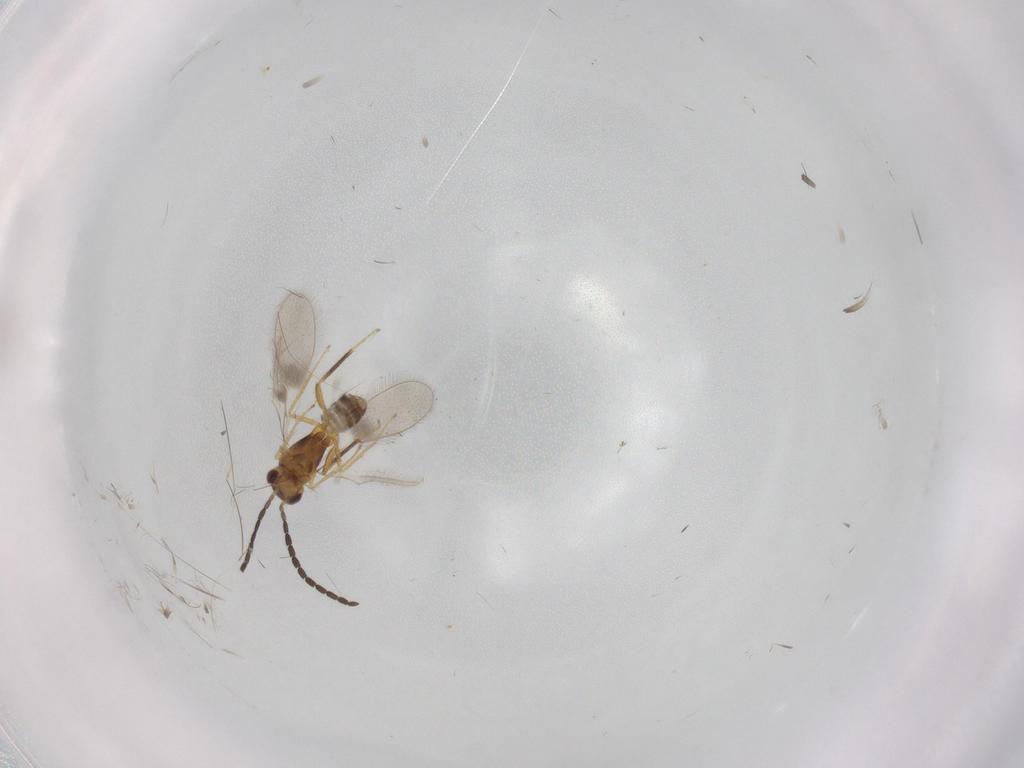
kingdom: Animalia
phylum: Arthropoda
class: Insecta
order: Hymenoptera
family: Mymaridae
